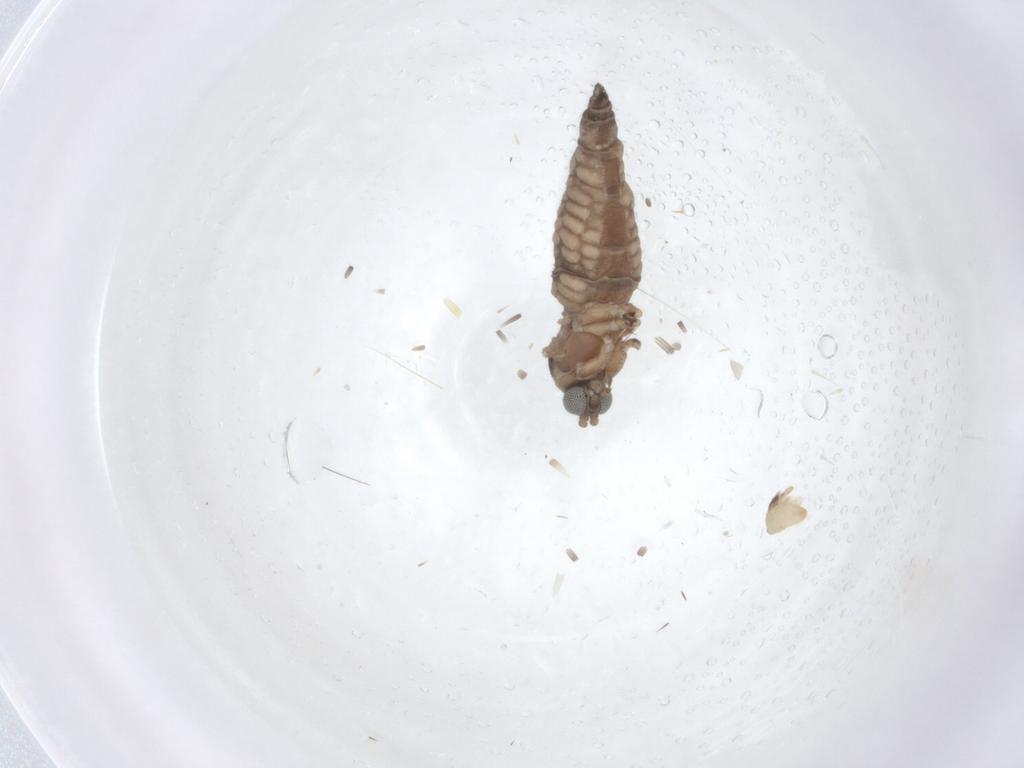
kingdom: Animalia
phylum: Arthropoda
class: Insecta
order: Diptera
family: Sciaridae
